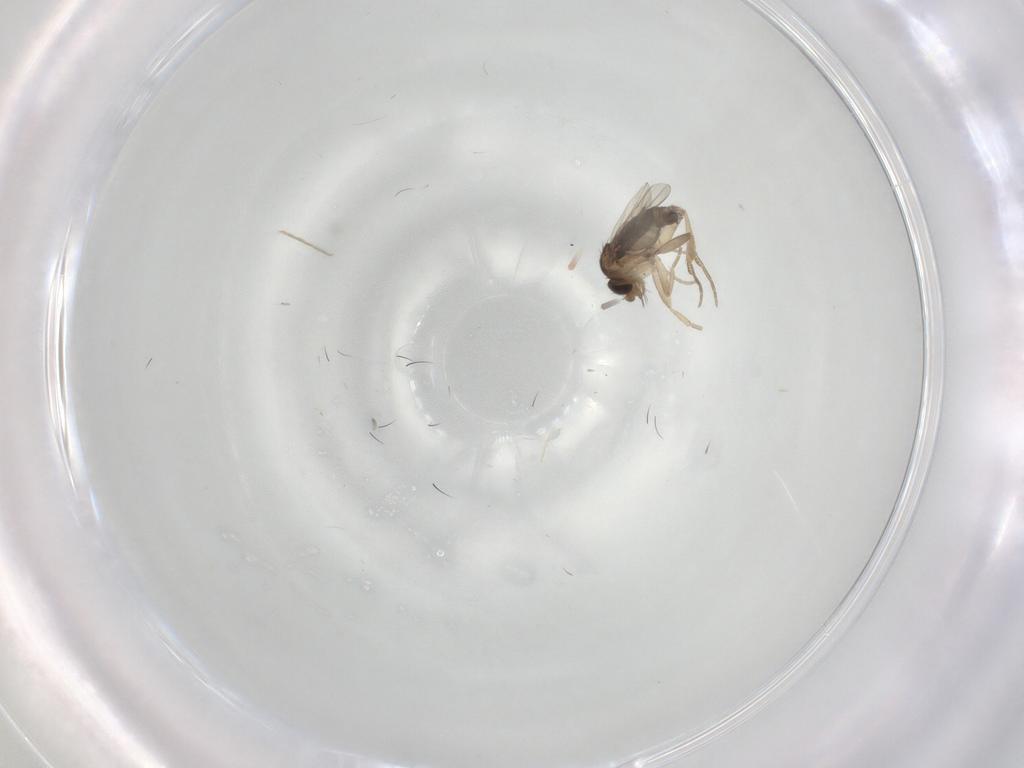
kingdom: Animalia
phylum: Arthropoda
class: Insecta
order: Diptera
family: Phoridae
